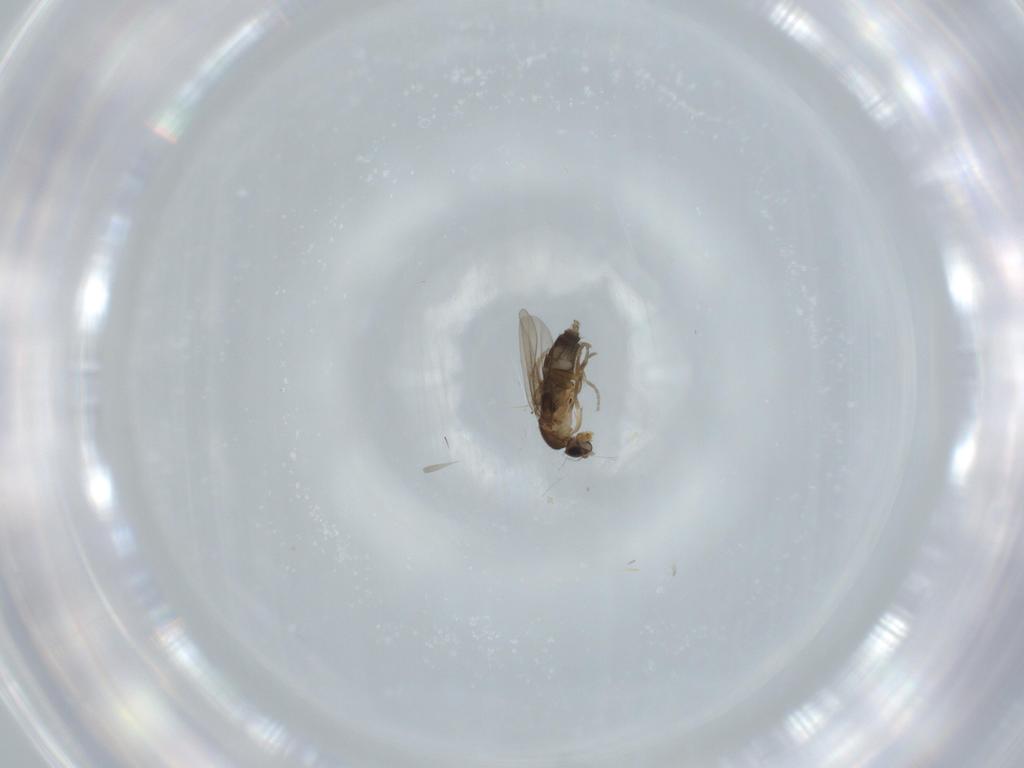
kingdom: Animalia
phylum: Arthropoda
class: Insecta
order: Diptera
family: Phoridae
